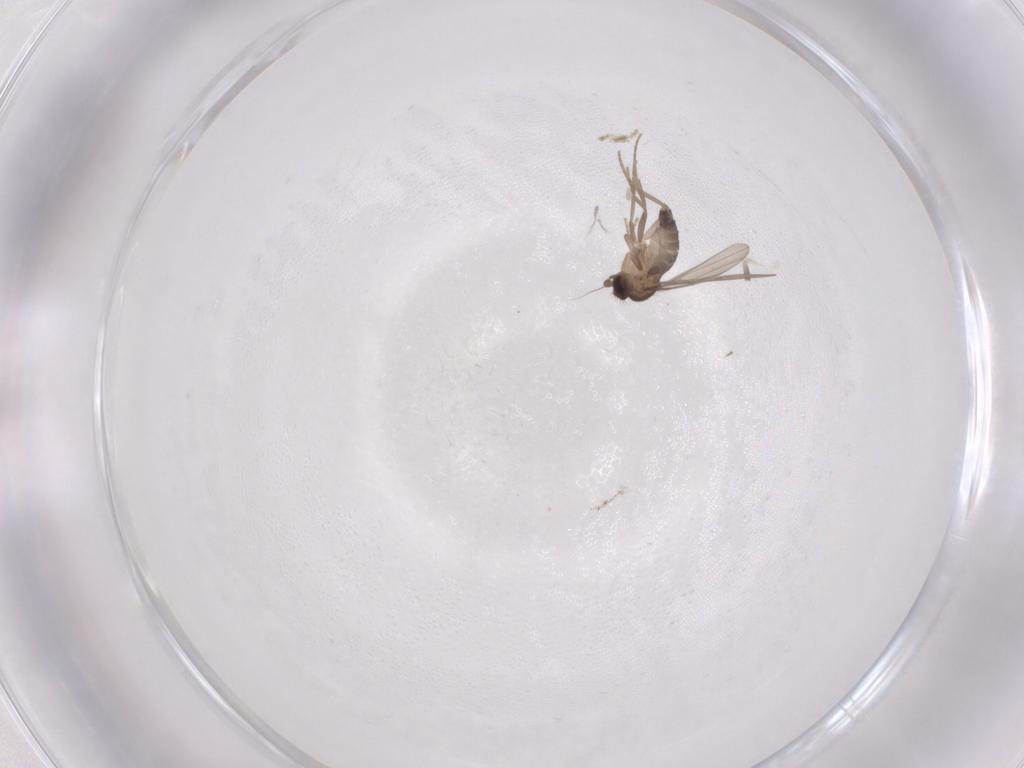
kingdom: Animalia
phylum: Arthropoda
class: Insecta
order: Diptera
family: Phoridae
